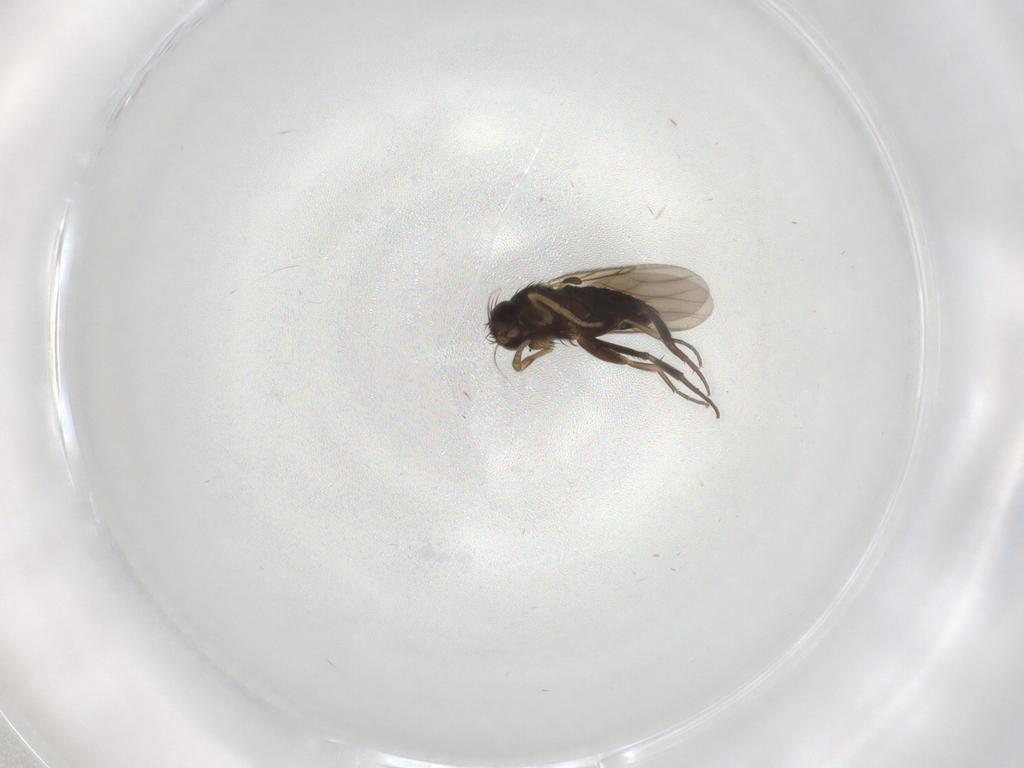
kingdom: Animalia
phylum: Arthropoda
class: Insecta
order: Diptera
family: Phoridae
